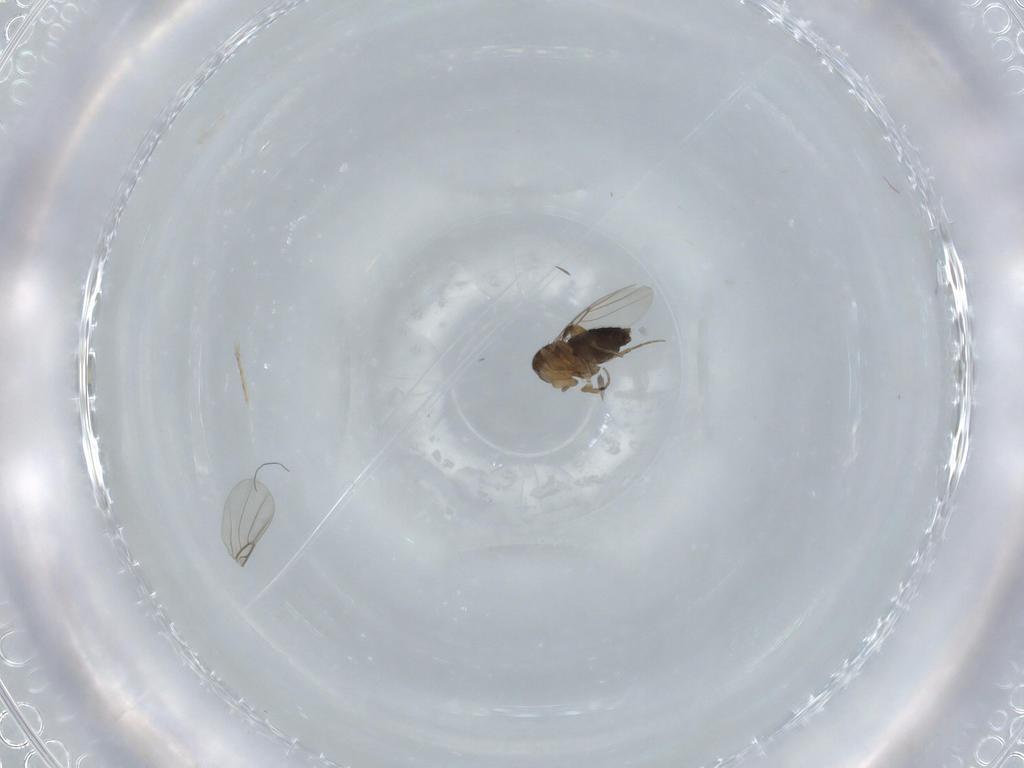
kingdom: Animalia
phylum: Arthropoda
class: Insecta
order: Diptera
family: Phoridae
